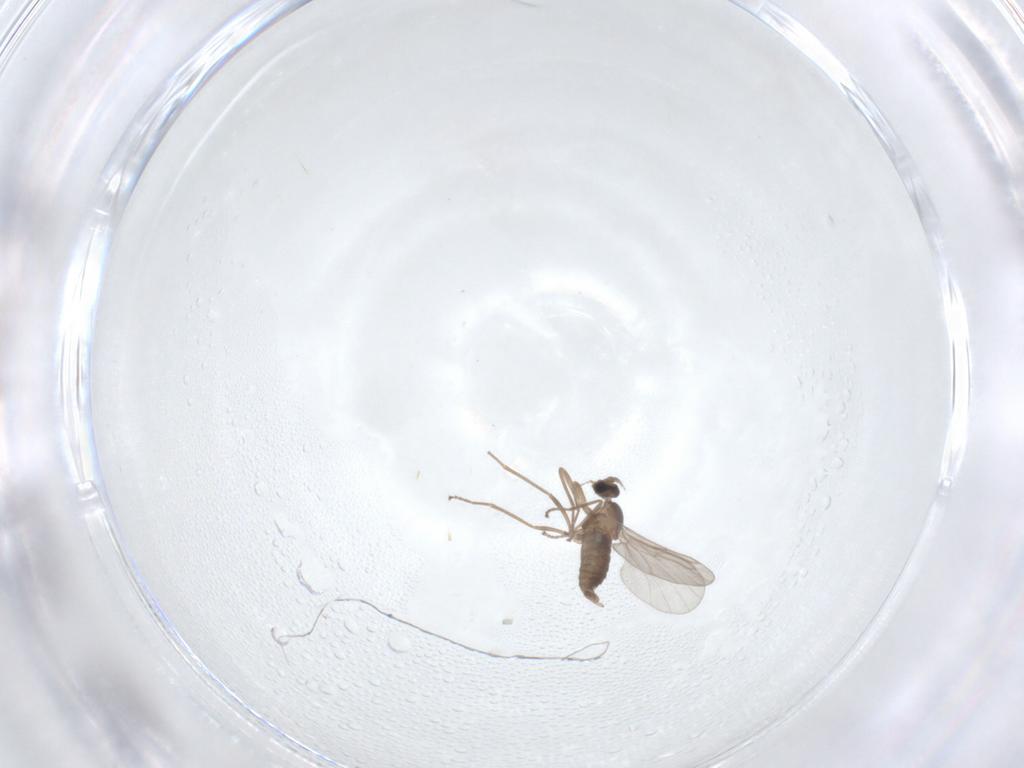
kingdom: Animalia
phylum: Arthropoda
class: Insecta
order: Diptera
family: Cecidomyiidae
